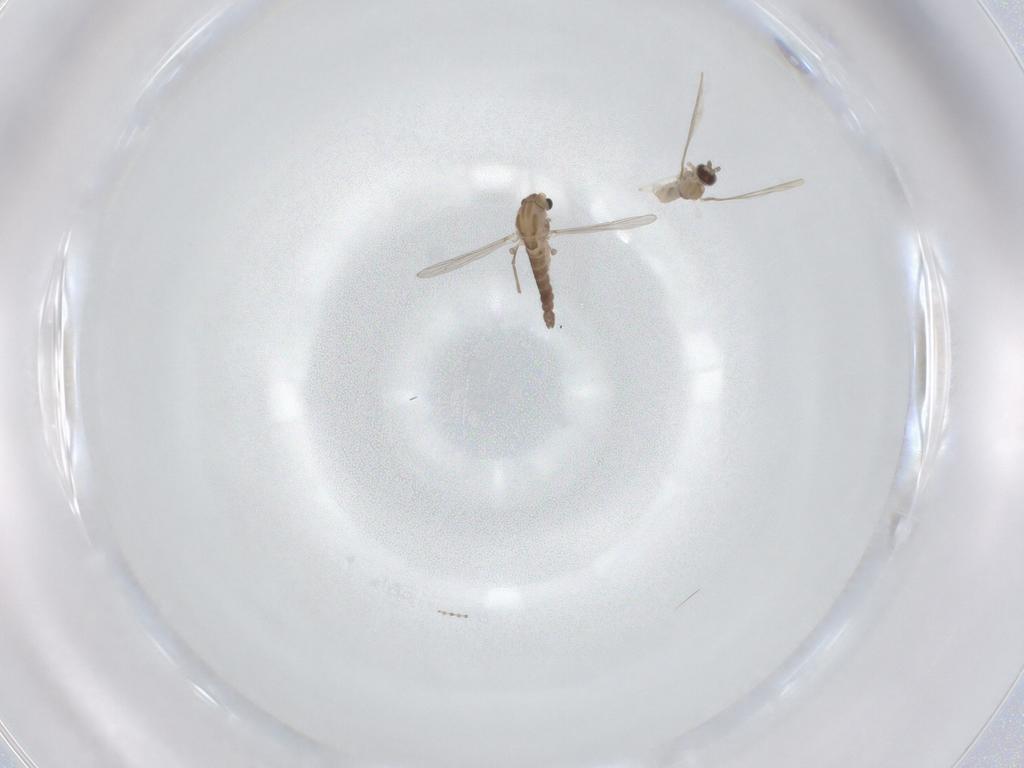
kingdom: Animalia
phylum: Arthropoda
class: Insecta
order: Diptera
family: Cecidomyiidae
